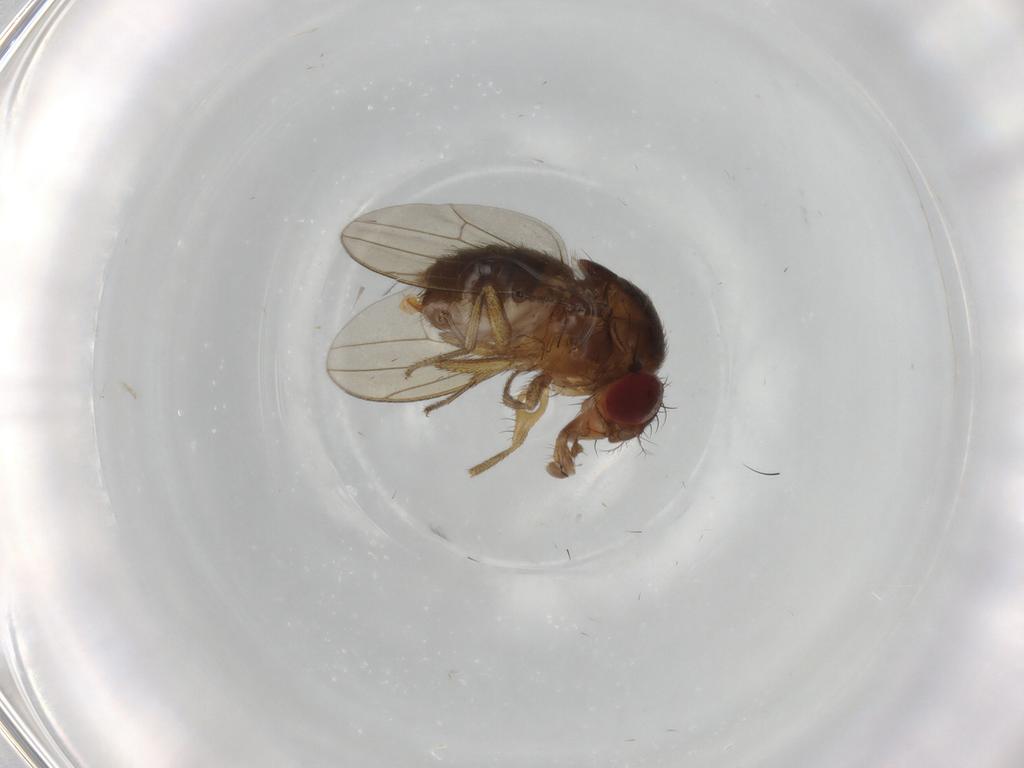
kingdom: Animalia
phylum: Arthropoda
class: Insecta
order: Diptera
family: Drosophilidae
